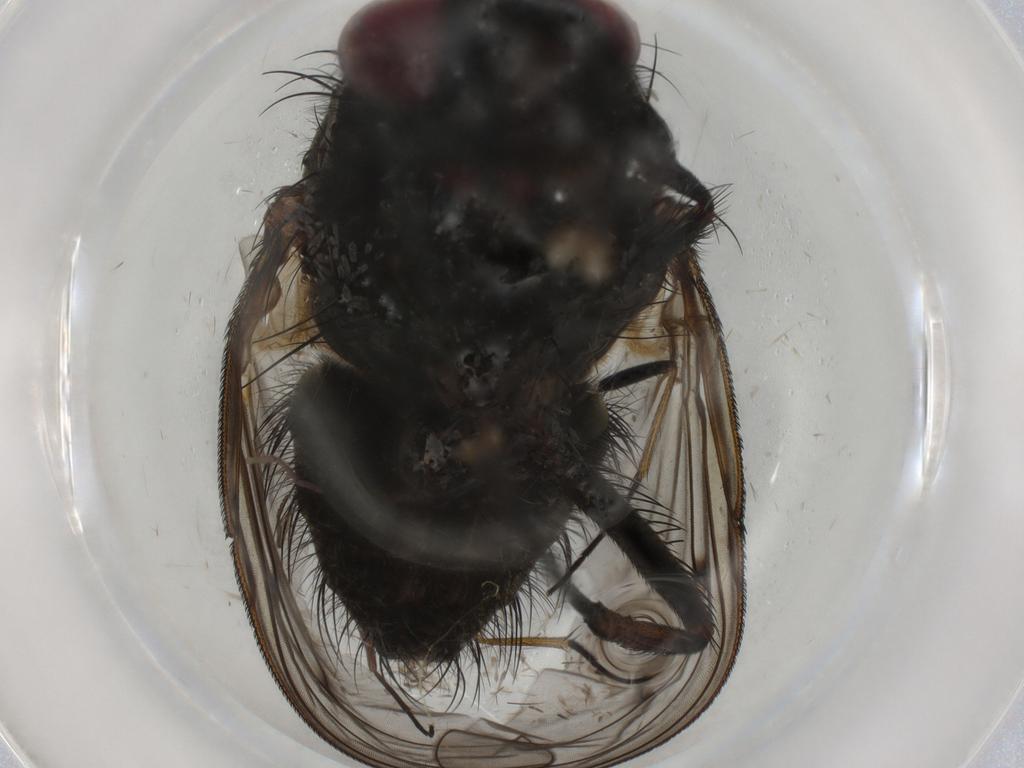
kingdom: Animalia
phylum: Arthropoda
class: Insecta
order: Diptera
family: Muscidae
